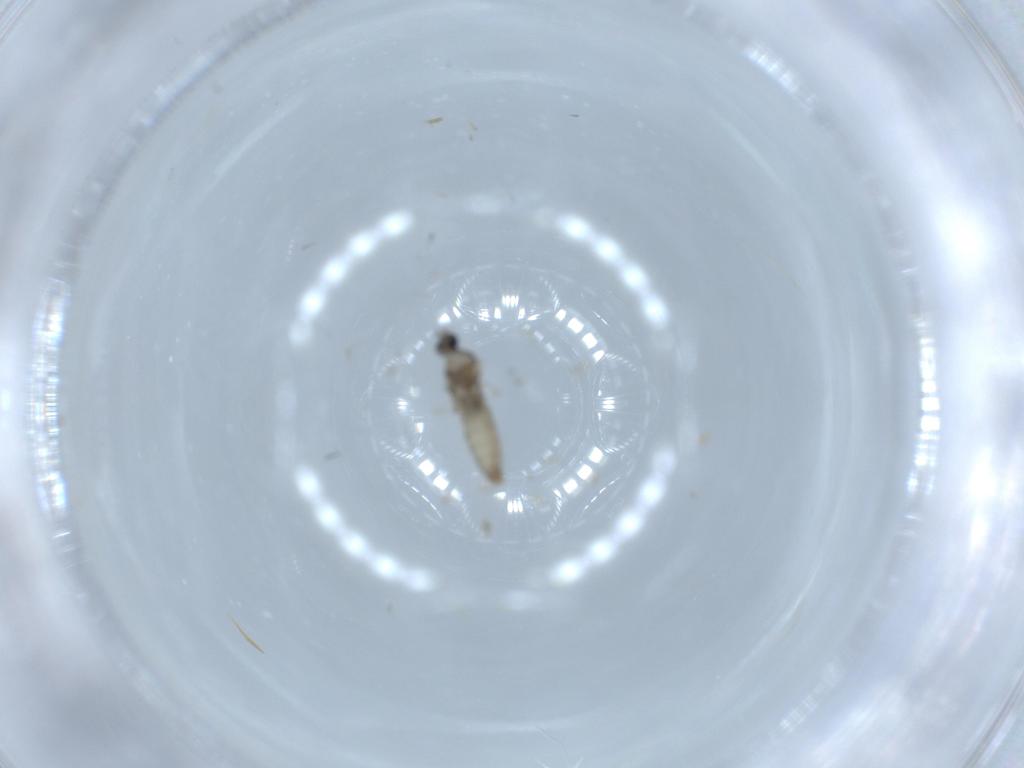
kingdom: Animalia
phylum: Arthropoda
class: Insecta
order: Diptera
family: Cecidomyiidae
